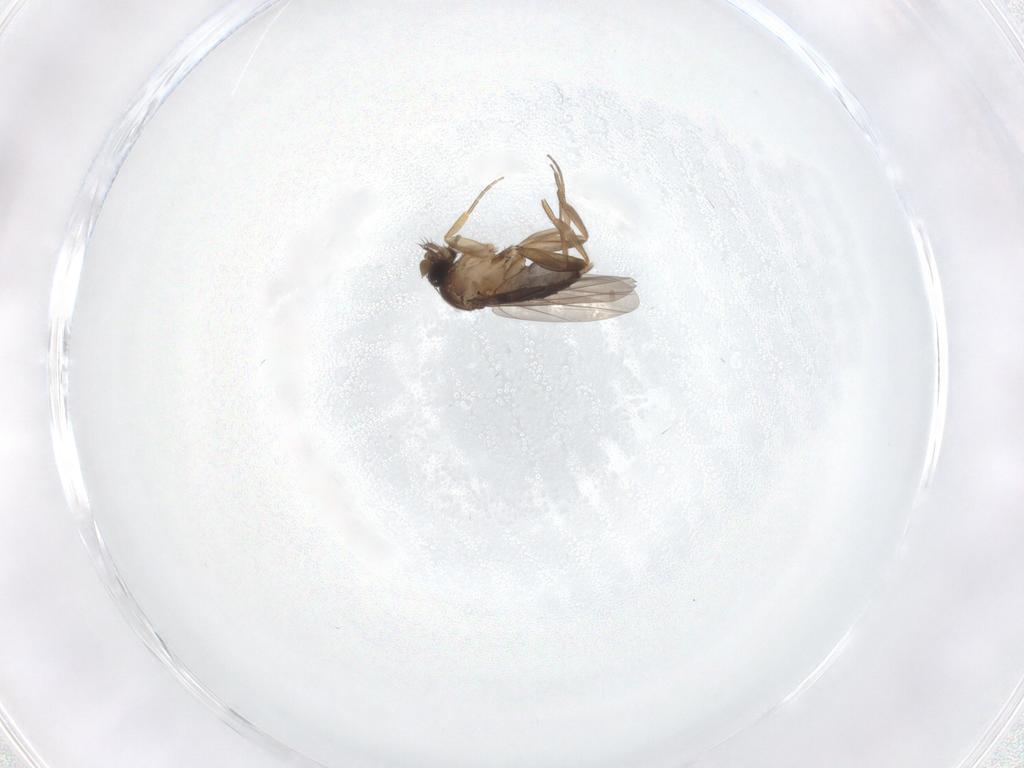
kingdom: Animalia
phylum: Arthropoda
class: Insecta
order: Diptera
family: Phoridae
